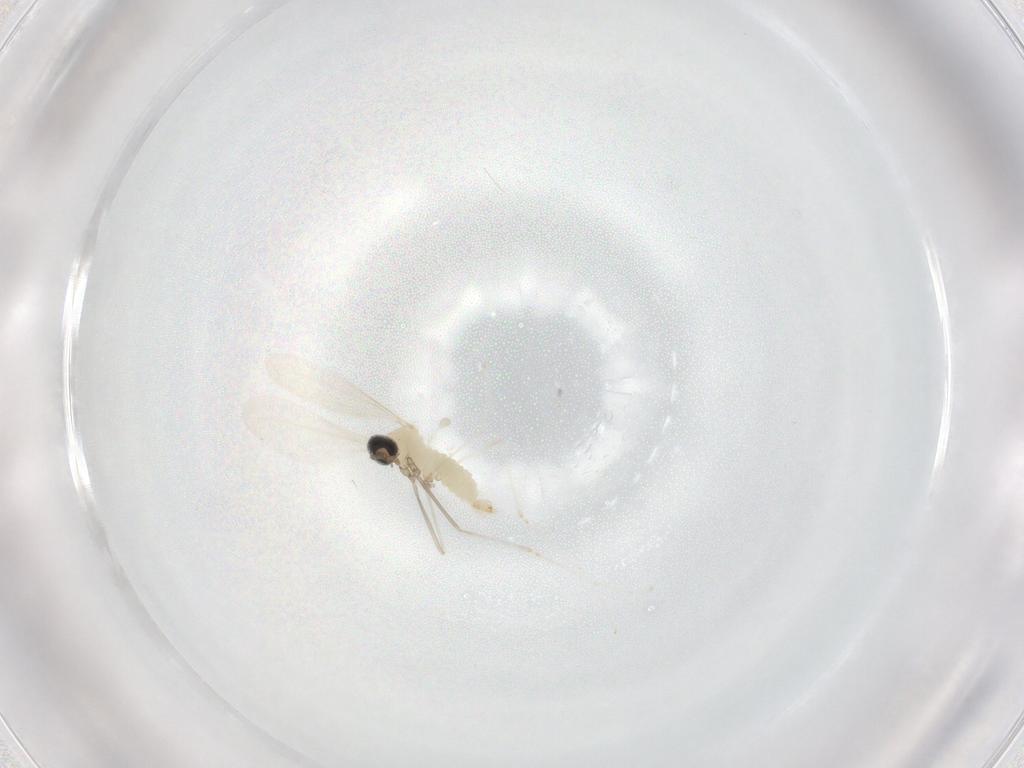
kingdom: Animalia
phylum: Arthropoda
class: Insecta
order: Diptera
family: Cecidomyiidae
